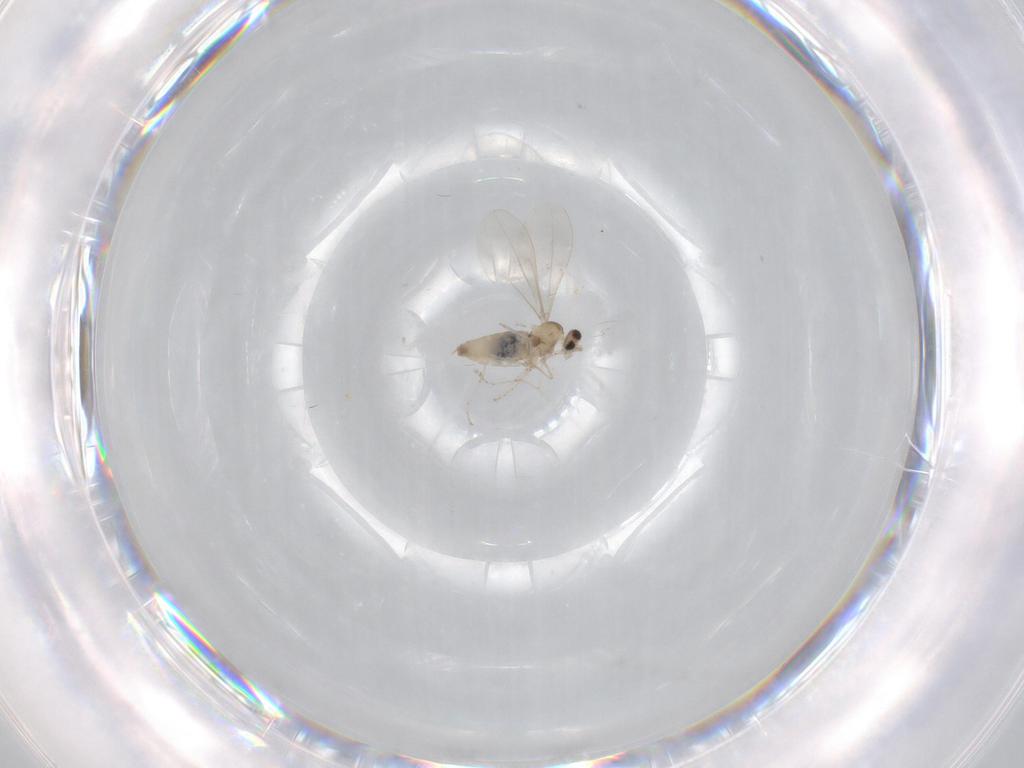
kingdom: Animalia
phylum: Arthropoda
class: Insecta
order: Diptera
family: Cecidomyiidae
